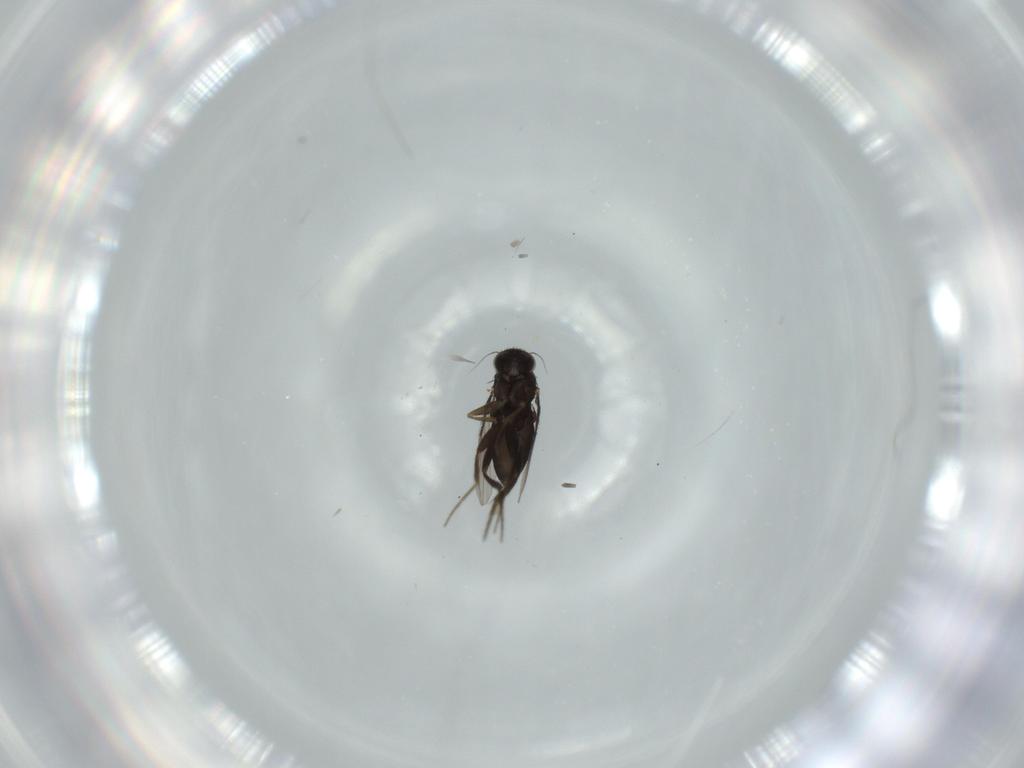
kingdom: Animalia
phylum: Arthropoda
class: Insecta
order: Diptera
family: Phoridae
